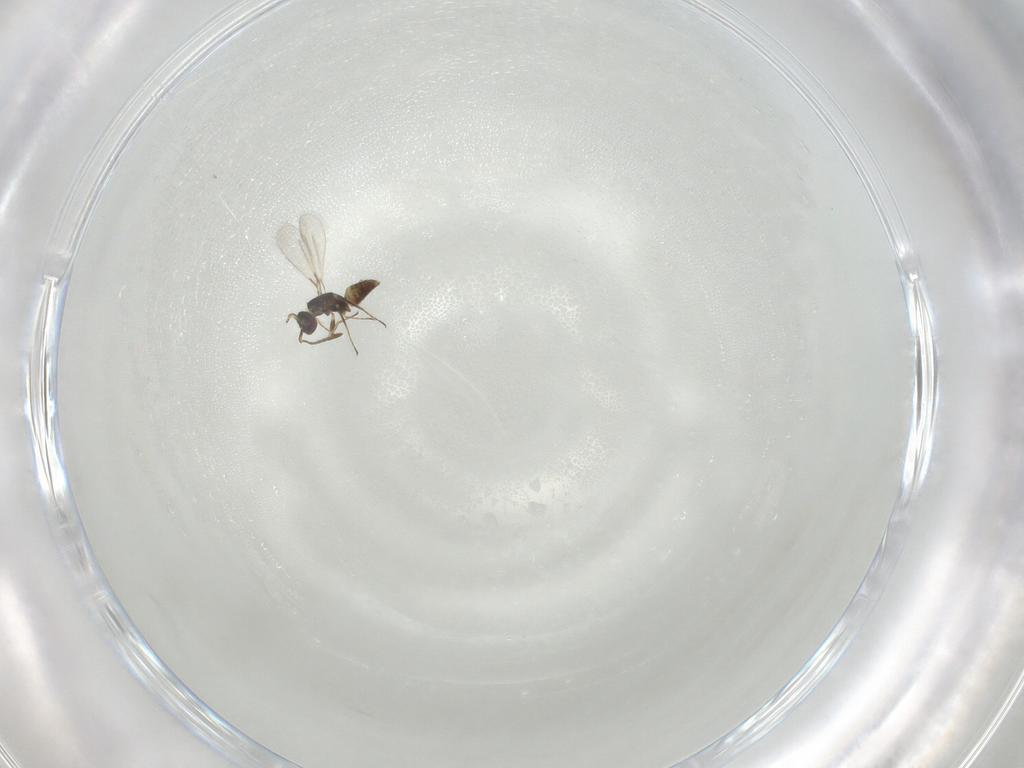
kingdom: Animalia
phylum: Arthropoda
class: Insecta
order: Hymenoptera
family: Mymaridae
